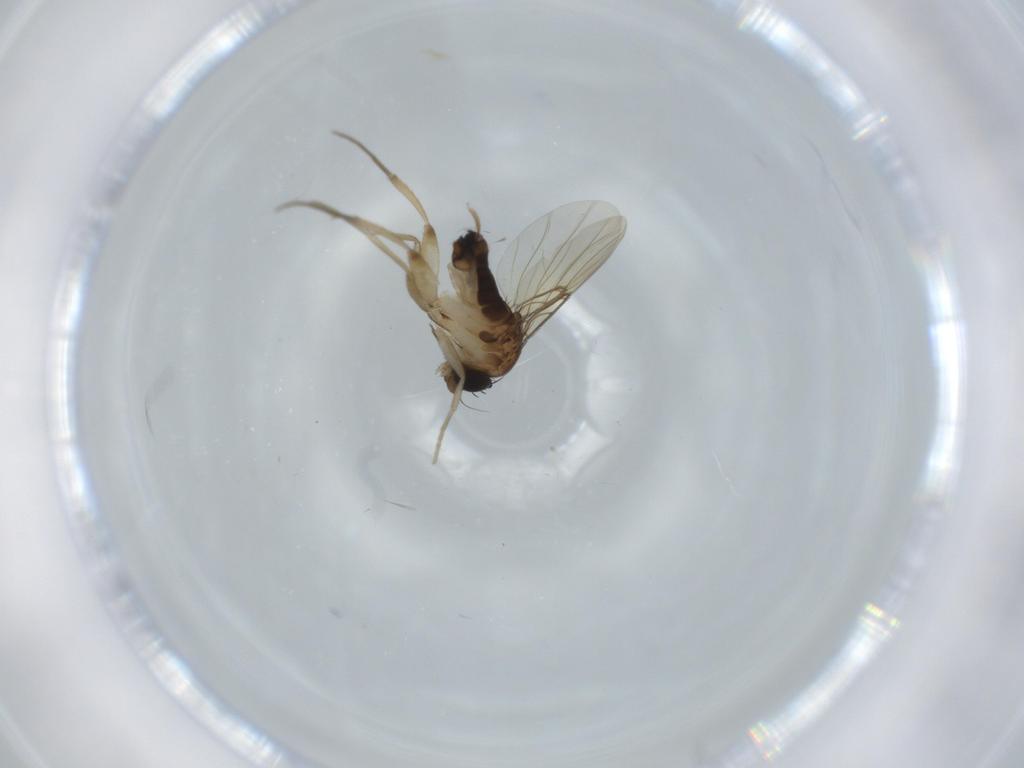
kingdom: Animalia
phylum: Arthropoda
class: Insecta
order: Diptera
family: Phoridae
